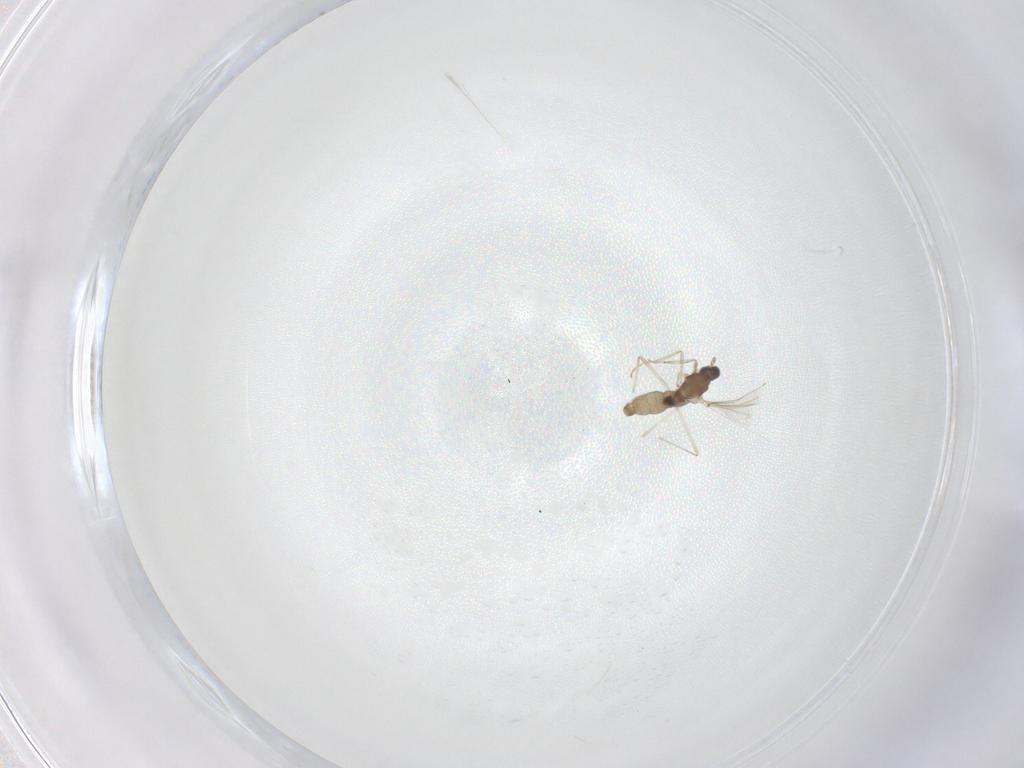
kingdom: Animalia
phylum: Arthropoda
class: Insecta
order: Diptera
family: Cecidomyiidae
